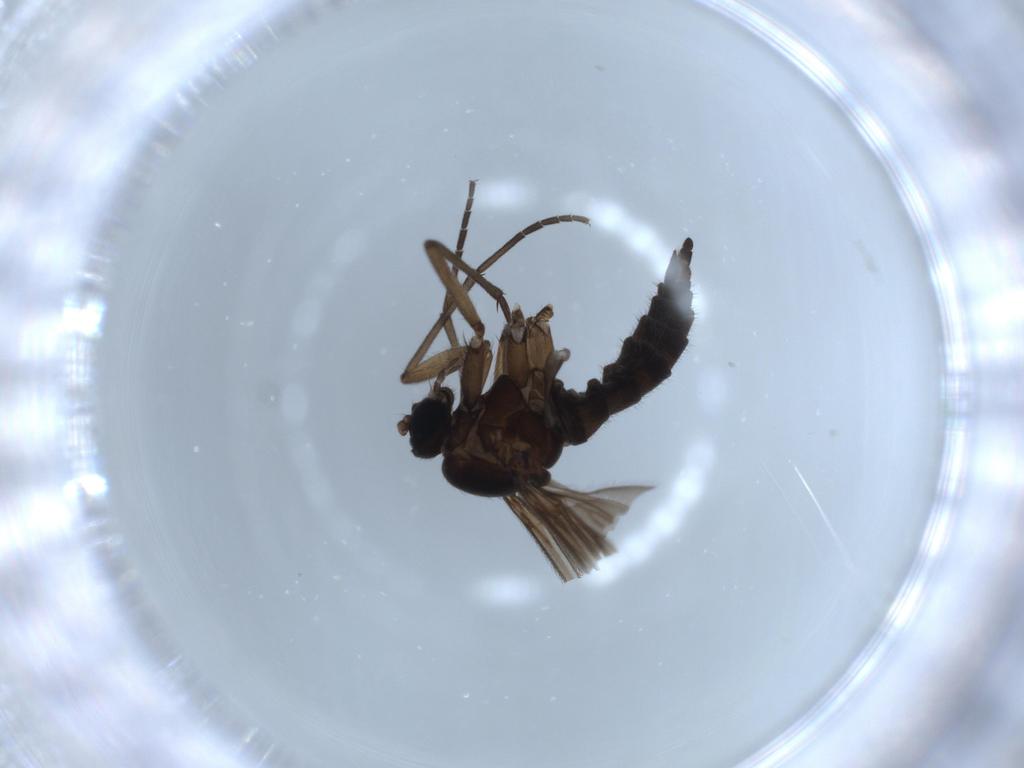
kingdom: Animalia
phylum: Arthropoda
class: Insecta
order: Diptera
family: Sciaridae
